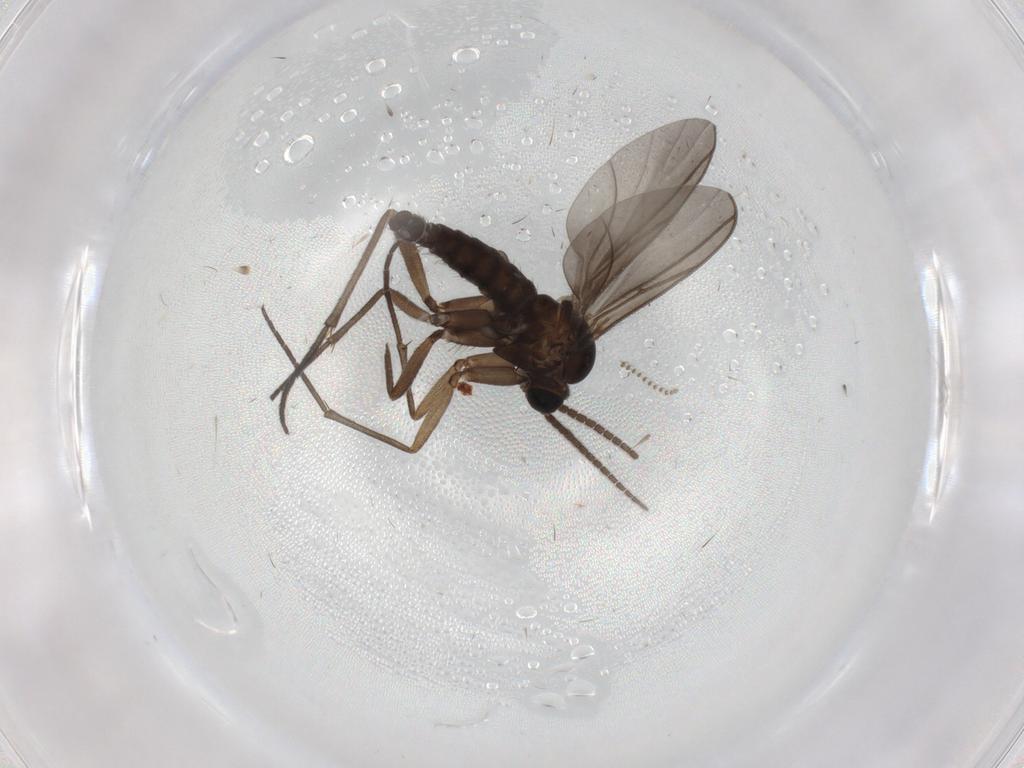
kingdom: Animalia
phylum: Arthropoda
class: Insecta
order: Diptera
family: Sciaridae
